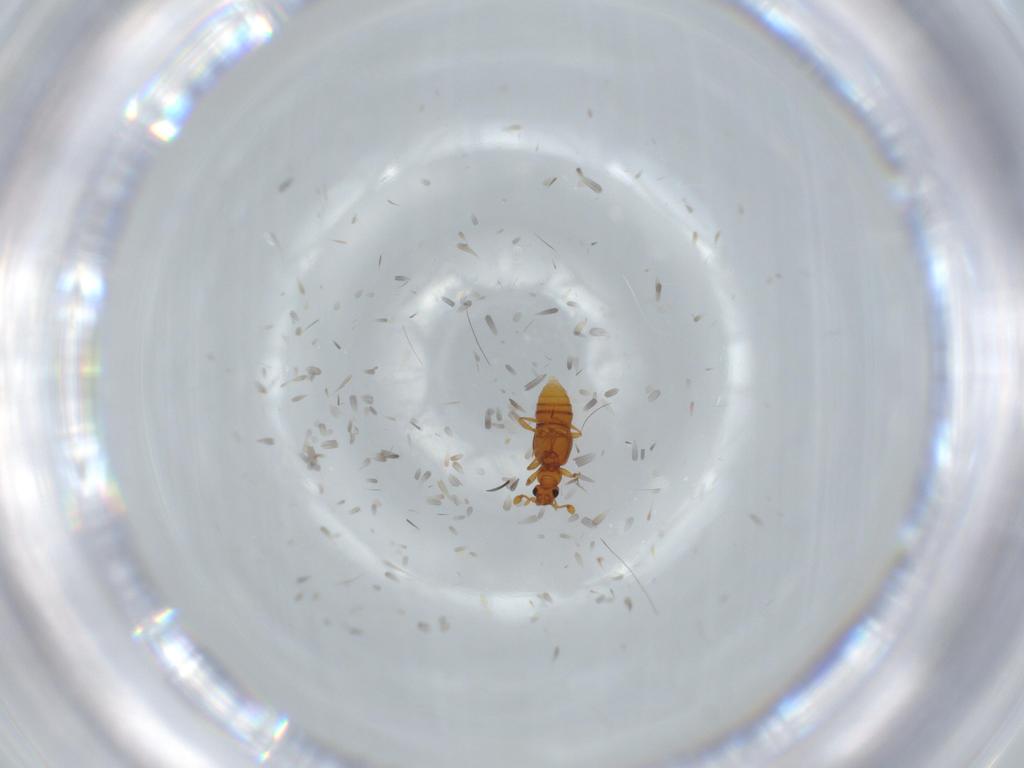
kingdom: Animalia
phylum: Arthropoda
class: Insecta
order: Coleoptera
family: Staphylinidae
